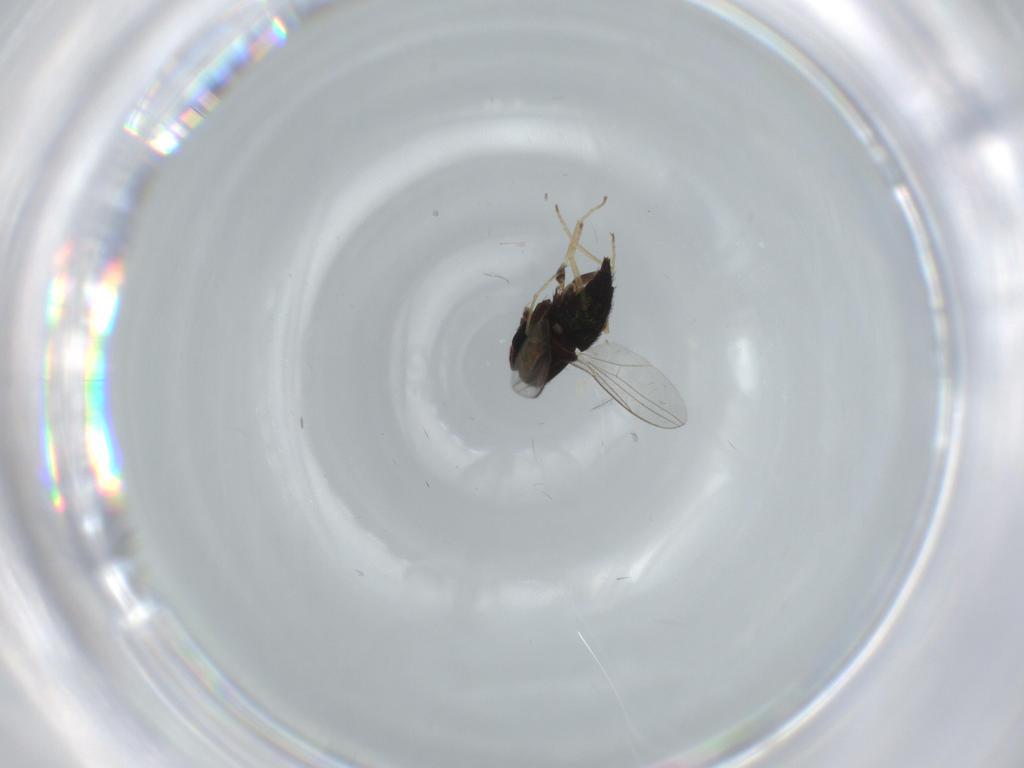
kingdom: Animalia
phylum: Arthropoda
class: Insecta
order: Diptera
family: Dolichopodidae
